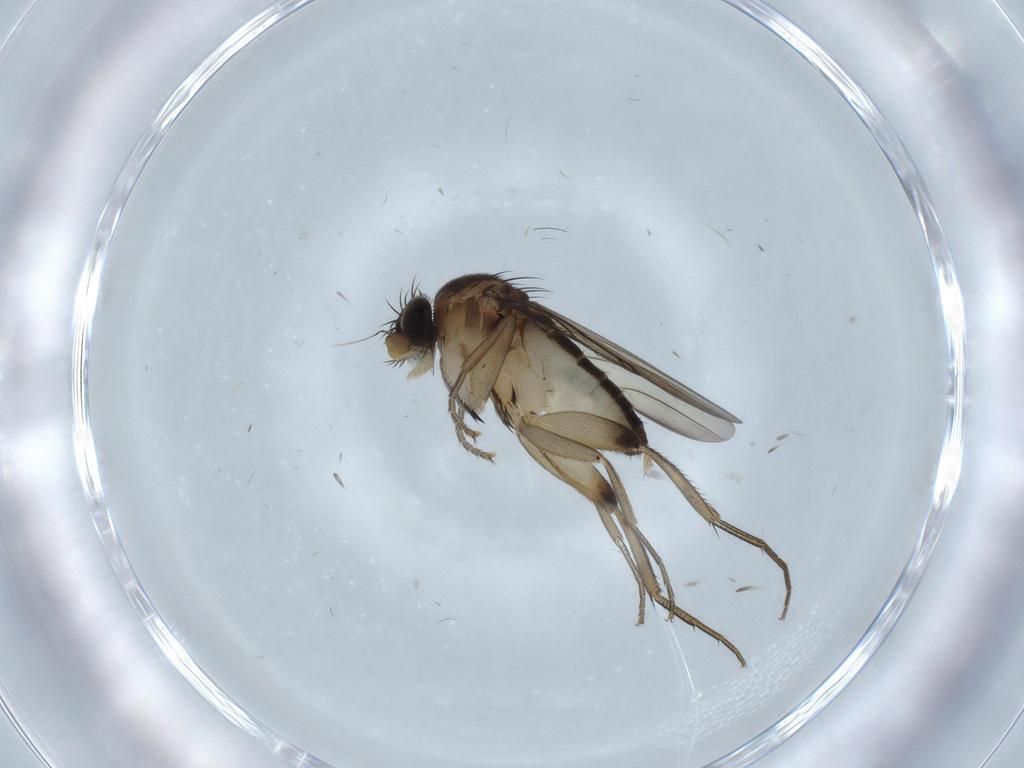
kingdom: Animalia
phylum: Arthropoda
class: Insecta
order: Diptera
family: Phoridae
